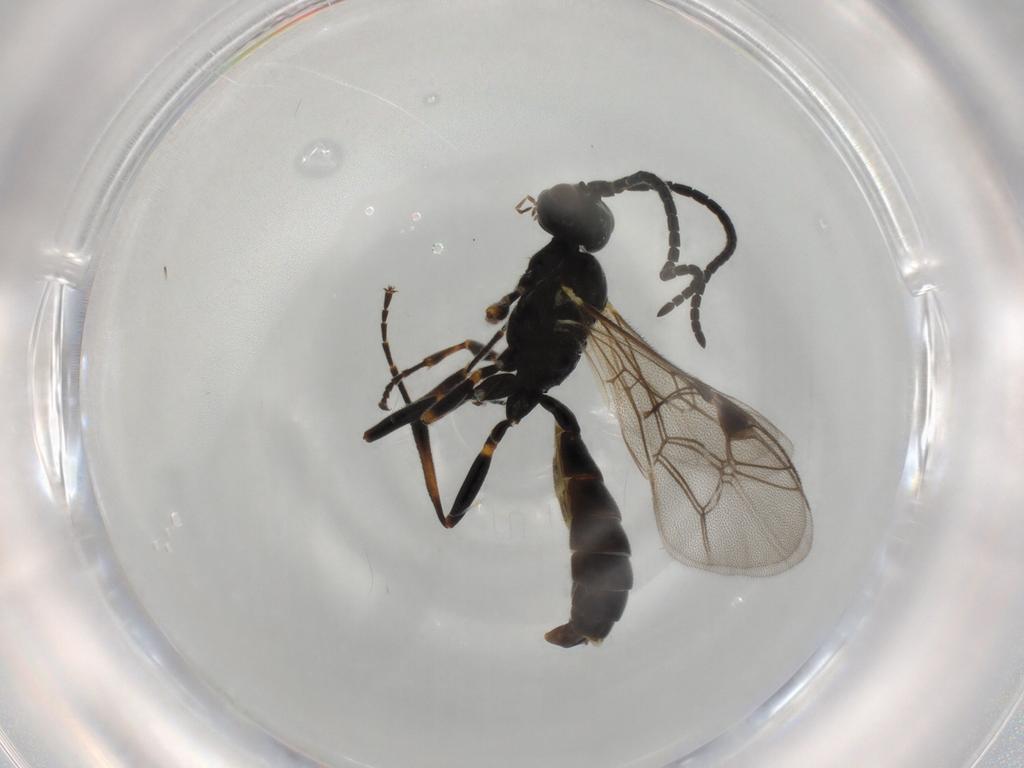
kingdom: Animalia
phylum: Arthropoda
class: Insecta
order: Hymenoptera
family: Ichneumonidae
